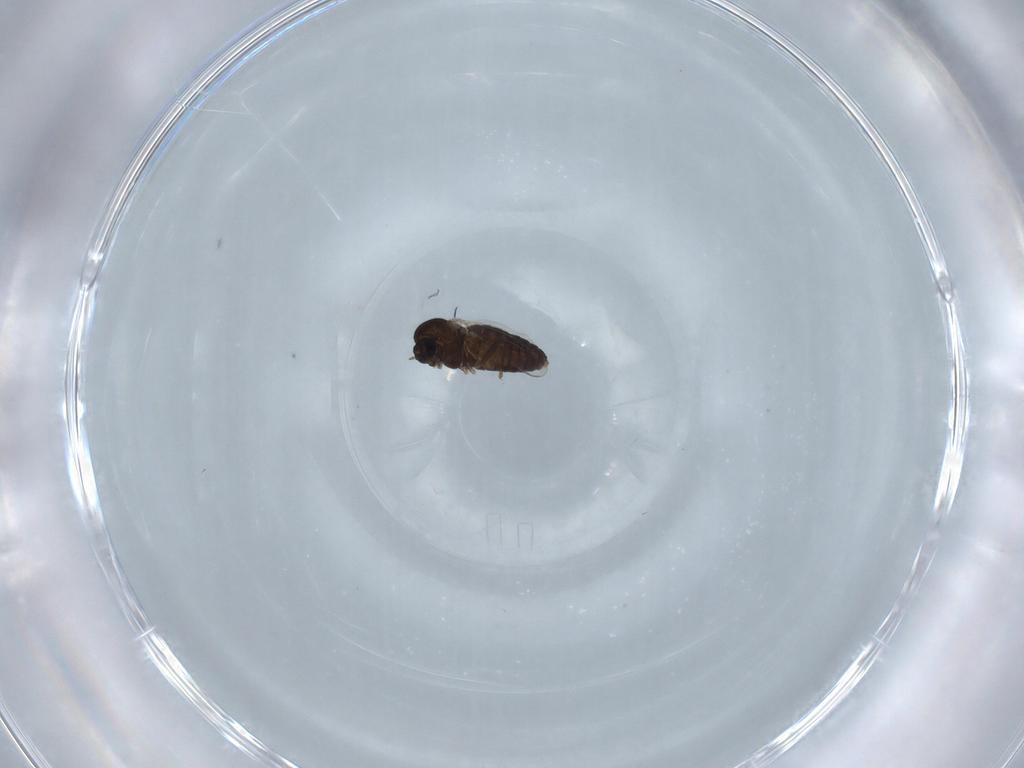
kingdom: Animalia
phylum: Arthropoda
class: Insecta
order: Diptera
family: Chironomidae
